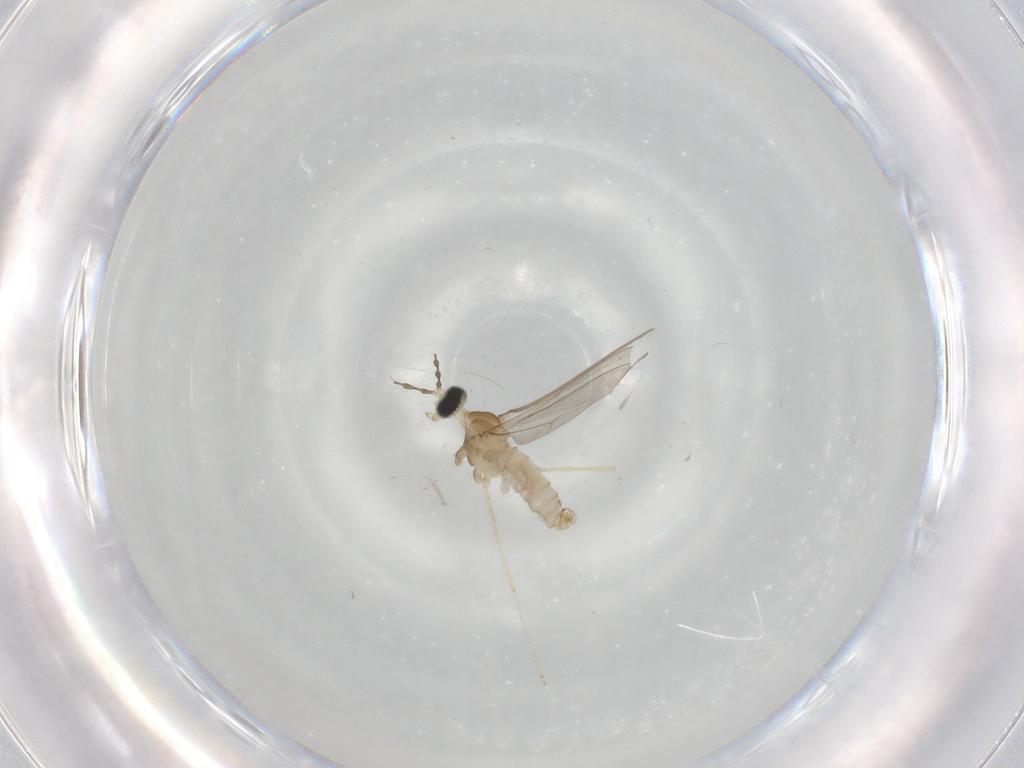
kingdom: Animalia
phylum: Arthropoda
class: Insecta
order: Diptera
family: Cecidomyiidae
